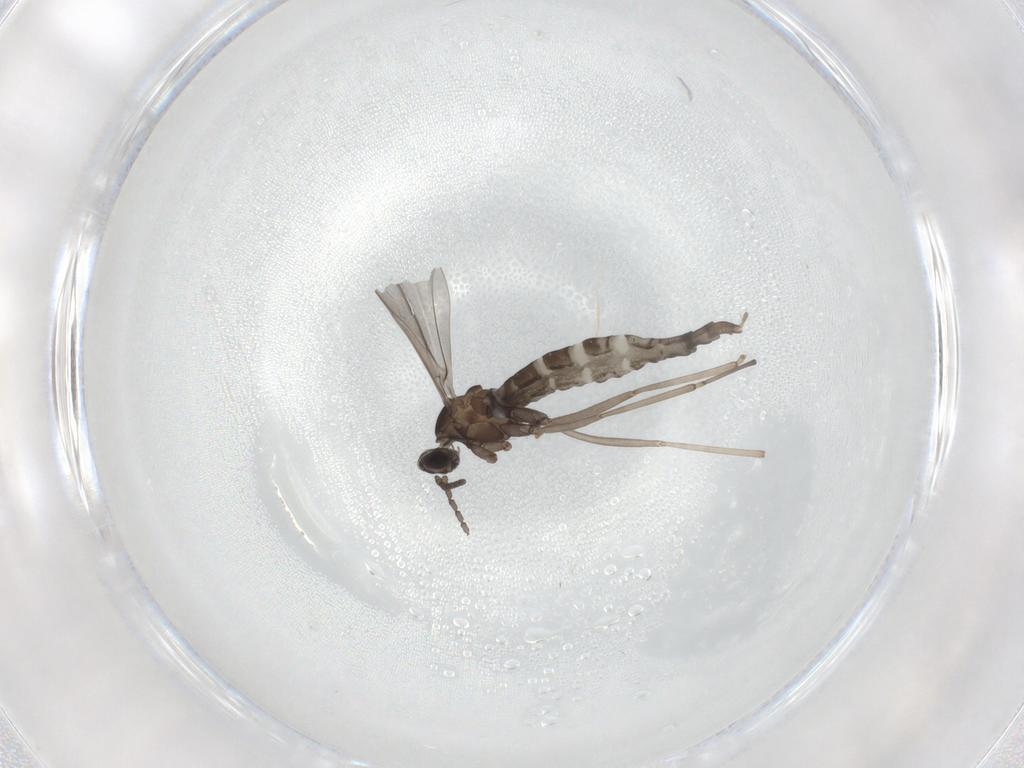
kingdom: Animalia
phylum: Arthropoda
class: Insecta
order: Diptera
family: Cecidomyiidae
